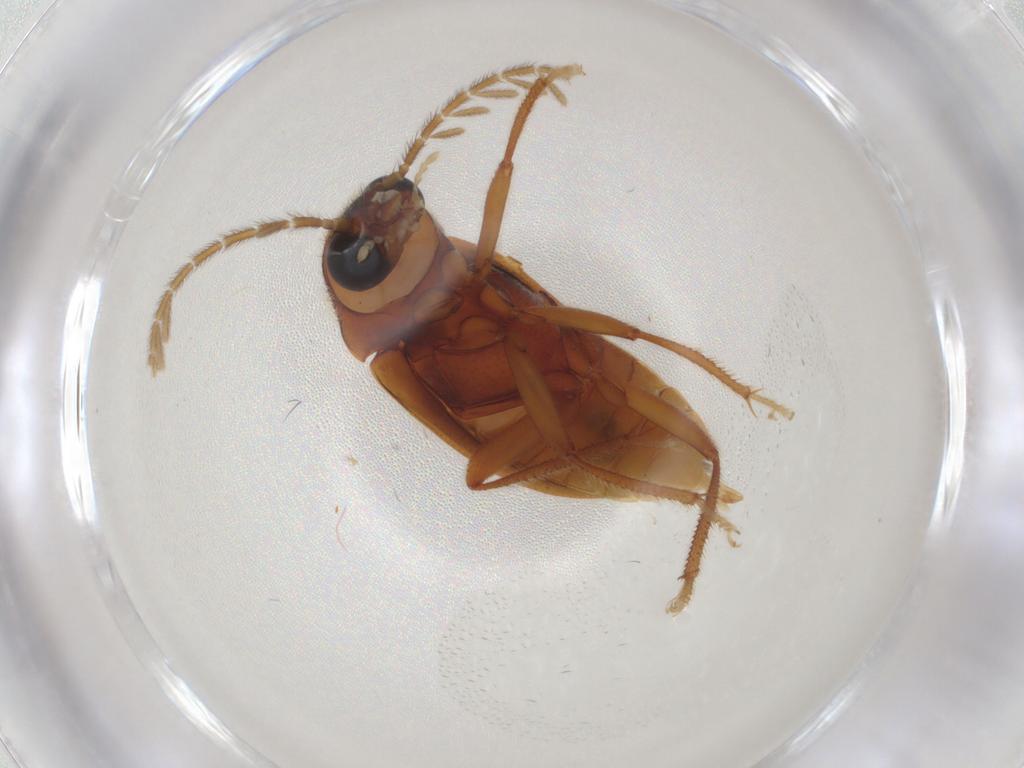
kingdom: Animalia
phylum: Arthropoda
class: Insecta
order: Coleoptera
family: Ptilodactylidae
